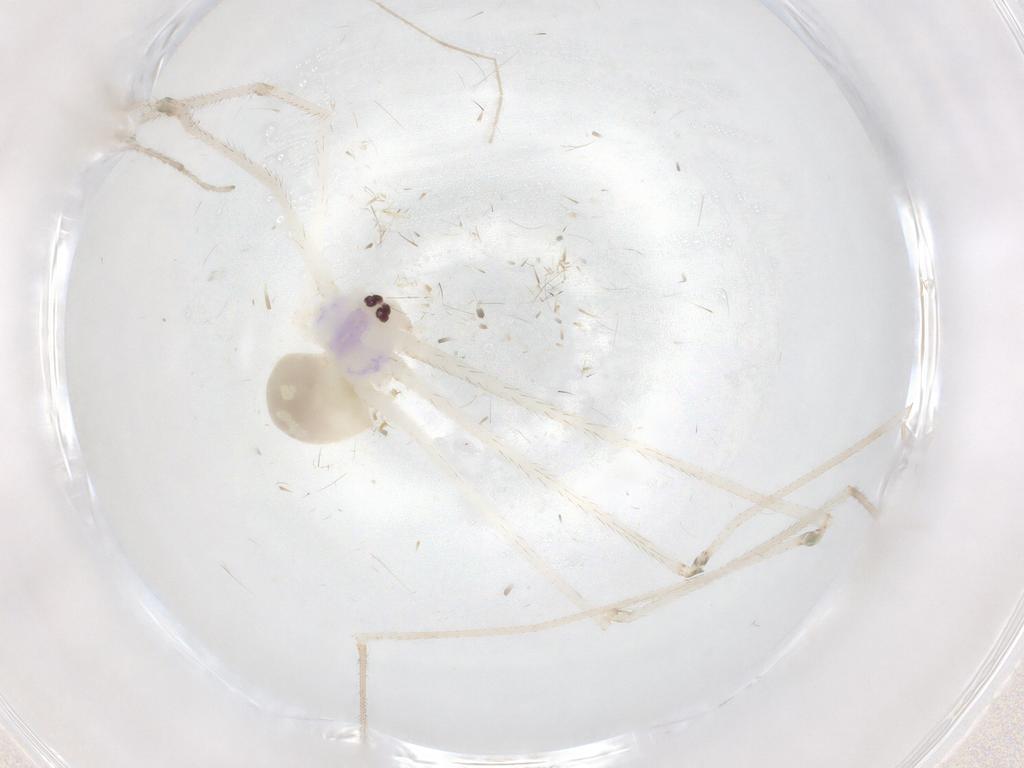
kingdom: Animalia
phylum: Arthropoda
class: Arachnida
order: Araneae
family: Pholcidae
